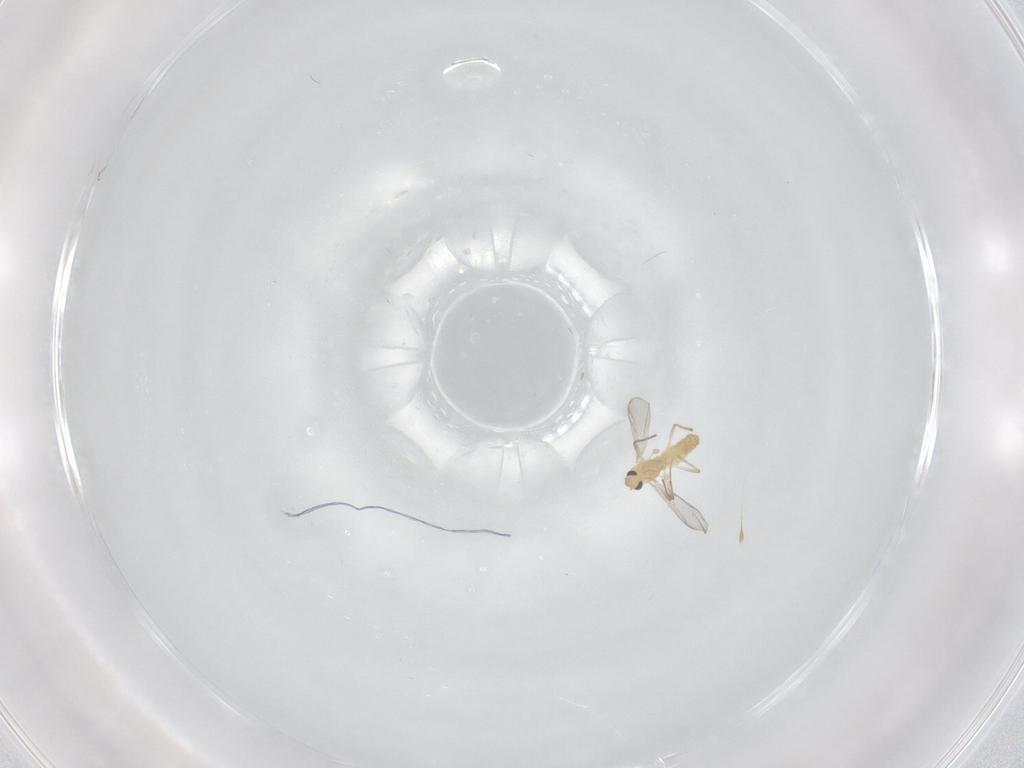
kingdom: Animalia
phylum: Arthropoda
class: Insecta
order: Diptera
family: Chironomidae
